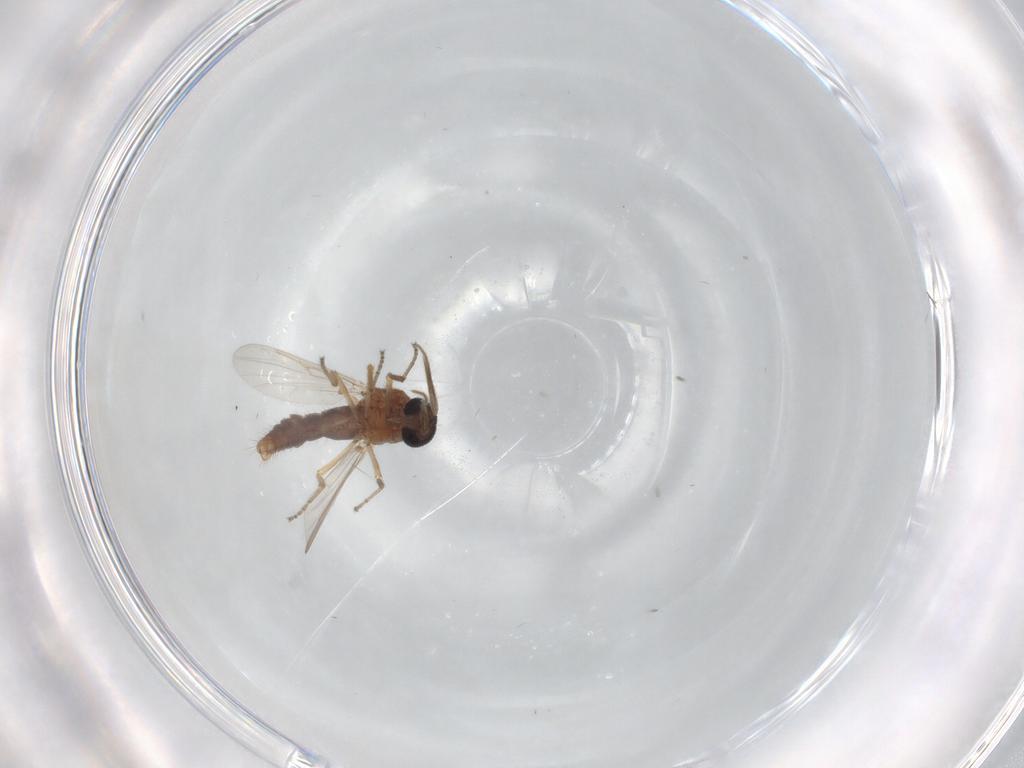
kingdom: Animalia
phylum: Arthropoda
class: Insecta
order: Diptera
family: Ceratopogonidae
